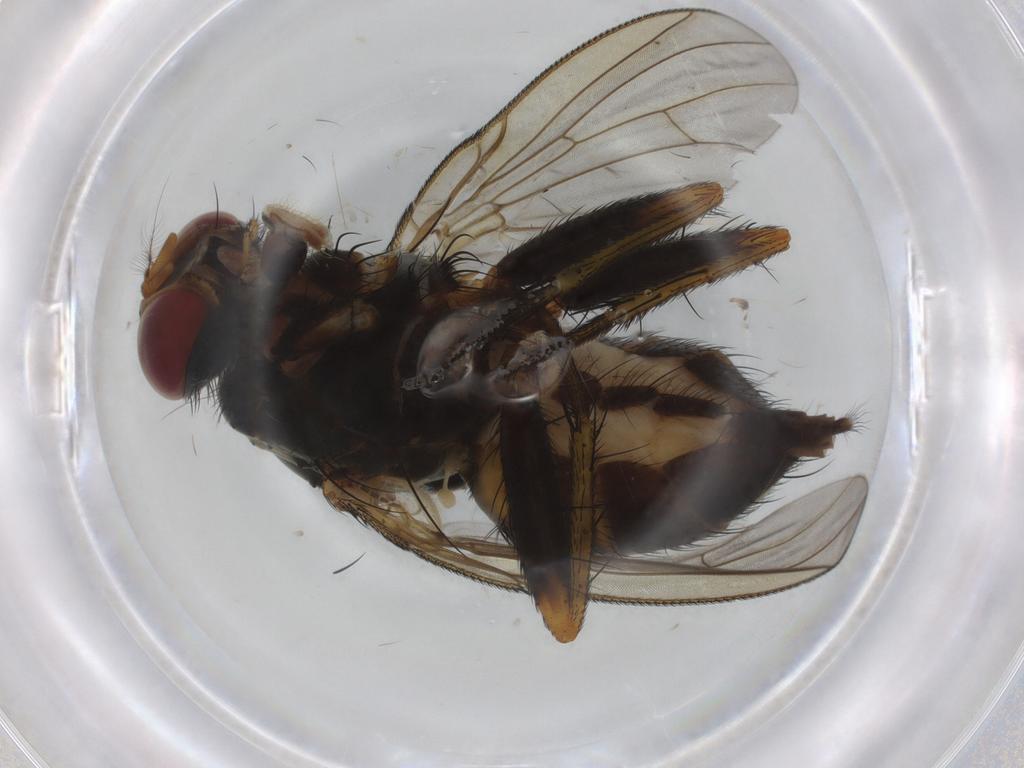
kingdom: Animalia
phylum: Arthropoda
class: Insecta
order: Diptera
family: Muscidae
